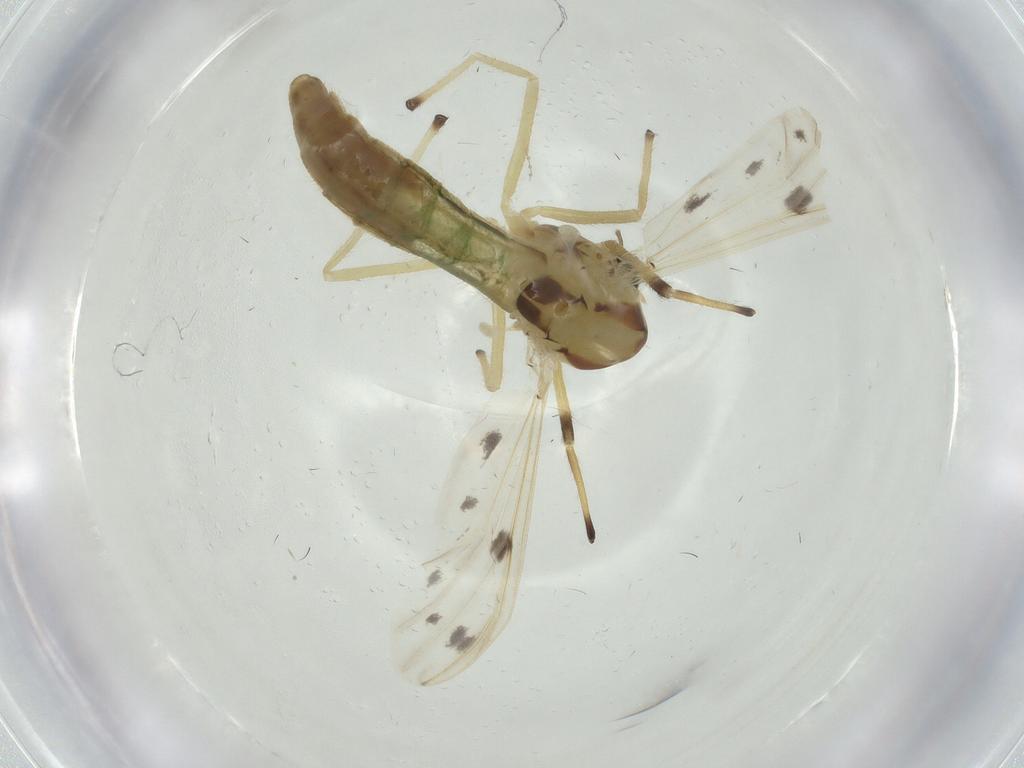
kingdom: Animalia
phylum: Arthropoda
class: Insecta
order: Diptera
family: Chironomidae
